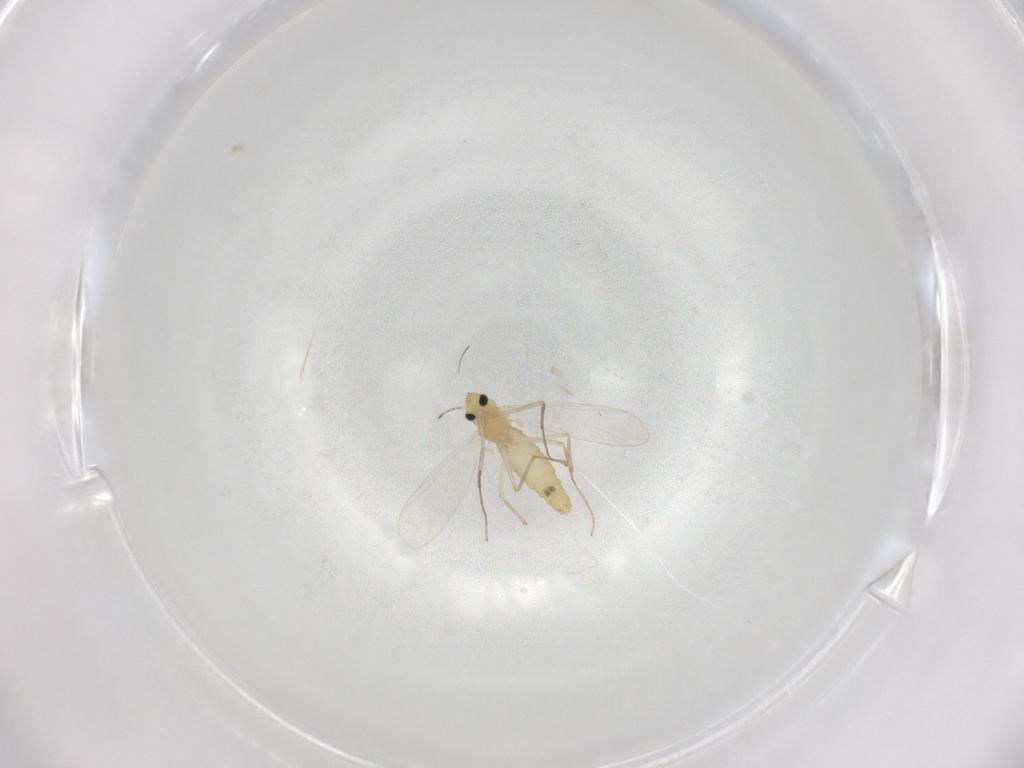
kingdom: Animalia
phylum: Arthropoda
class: Insecta
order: Diptera
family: Chironomidae
